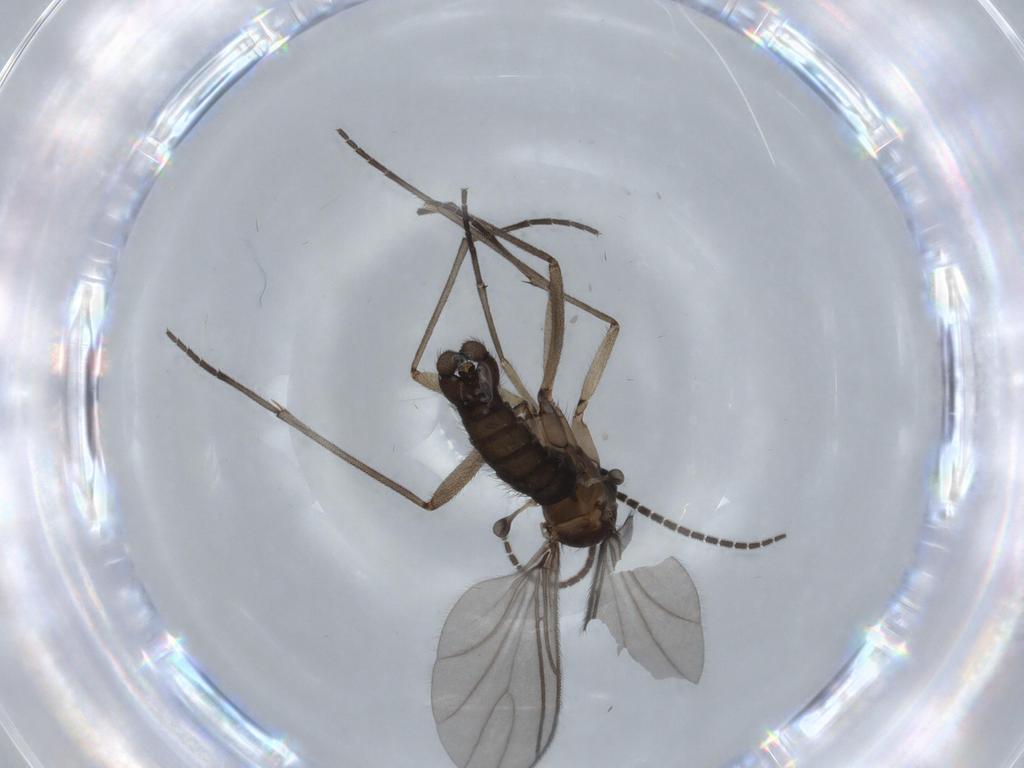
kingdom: Animalia
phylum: Arthropoda
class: Insecta
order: Diptera
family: Sciaridae
